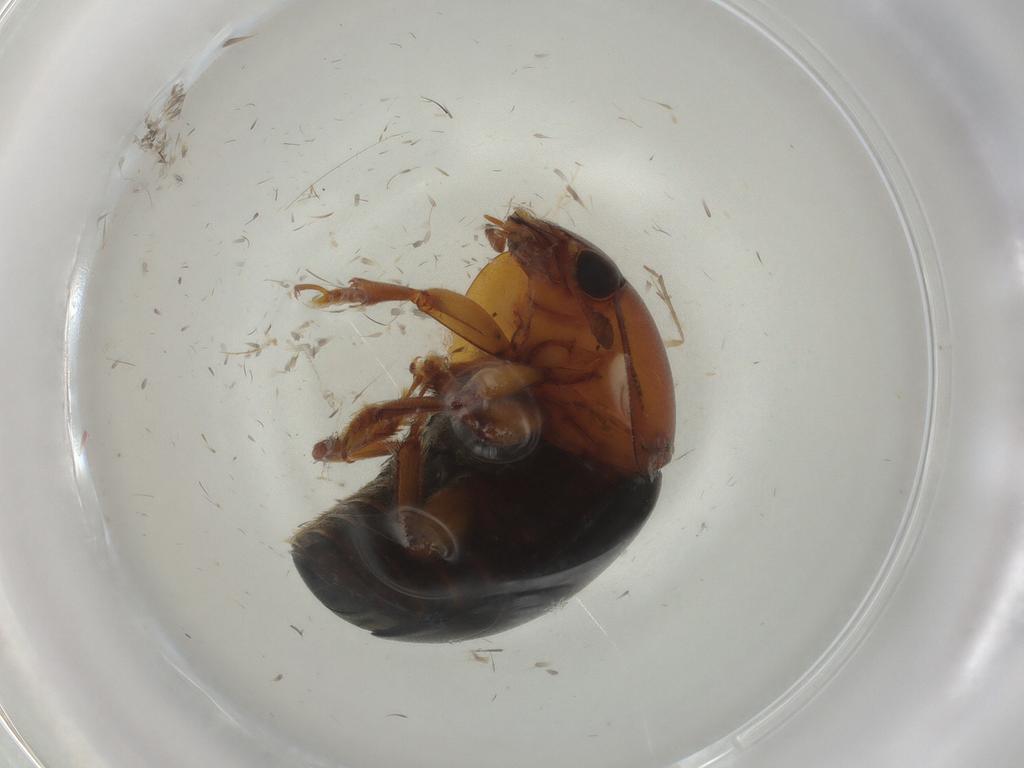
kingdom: Animalia
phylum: Arthropoda
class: Insecta
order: Coleoptera
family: Nitidulidae
